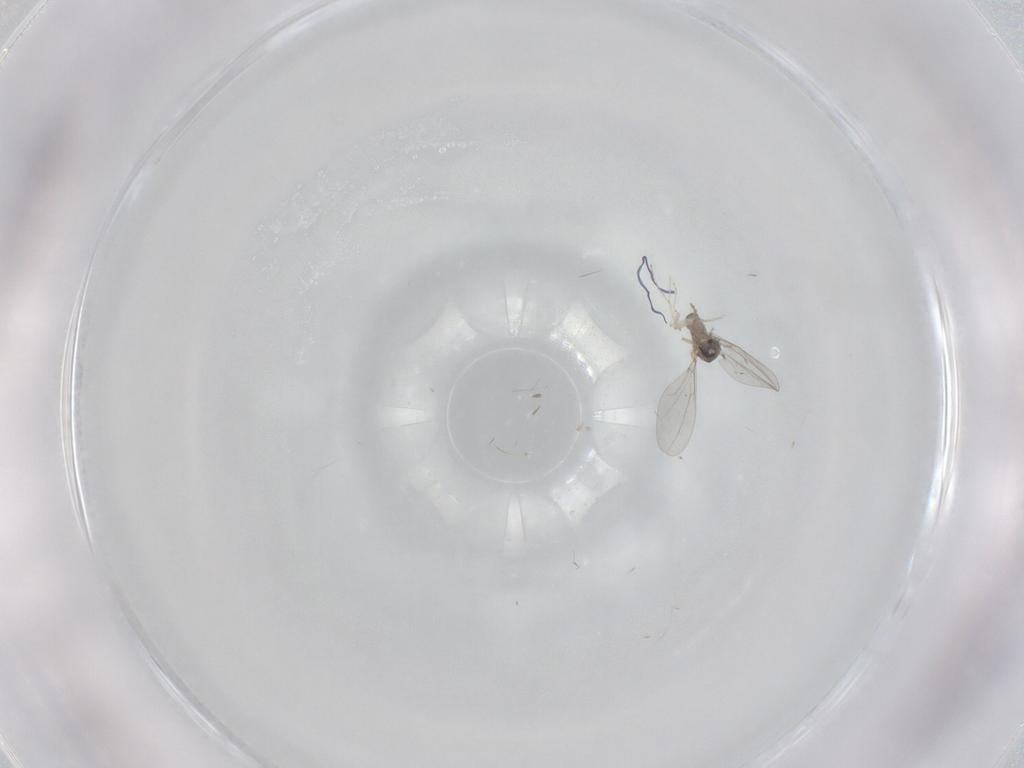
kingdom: Animalia
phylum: Arthropoda
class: Insecta
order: Diptera
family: Cecidomyiidae
